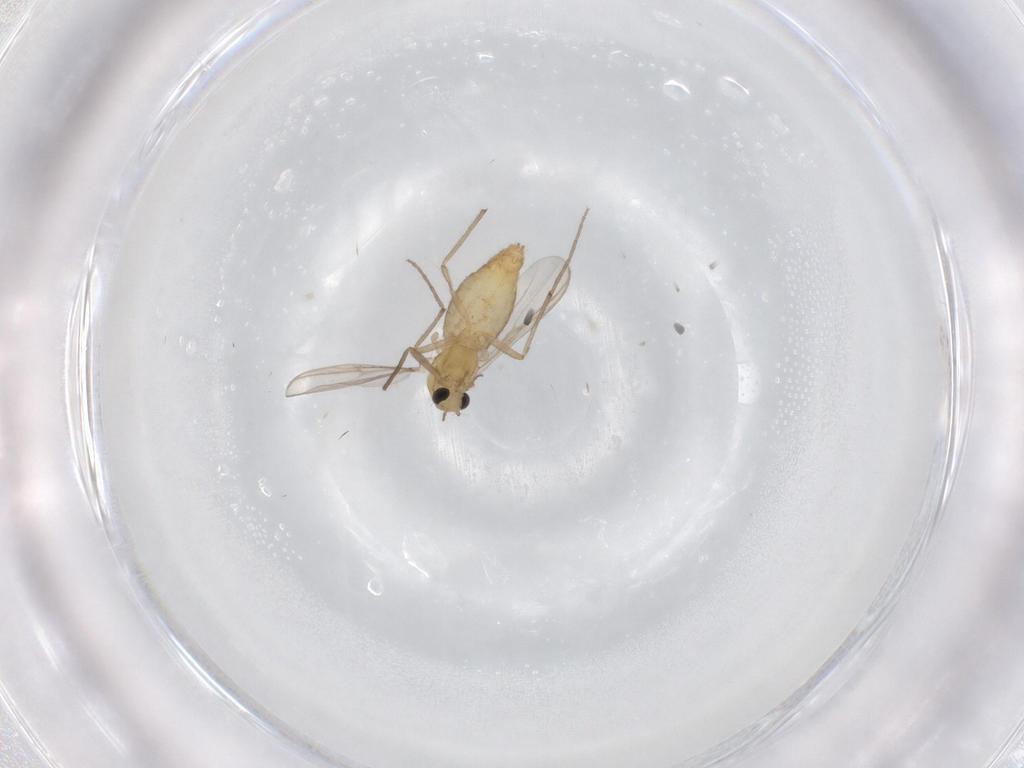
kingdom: Animalia
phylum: Arthropoda
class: Insecta
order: Diptera
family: Chironomidae
